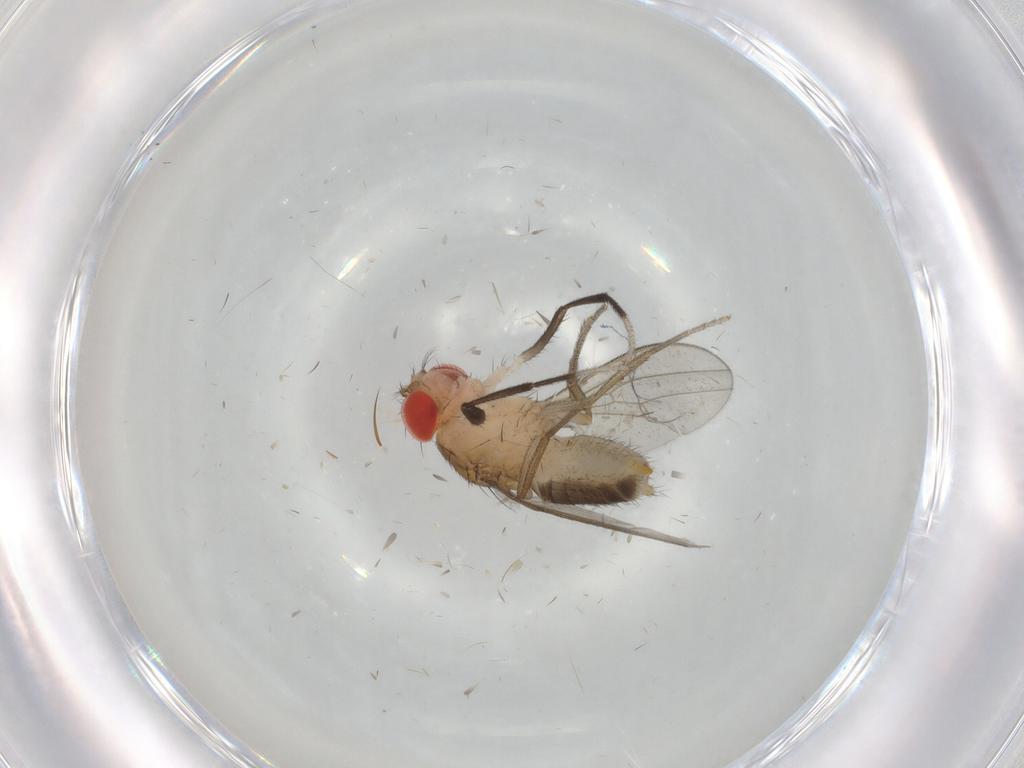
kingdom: Animalia
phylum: Arthropoda
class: Insecta
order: Diptera
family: Drosophilidae
